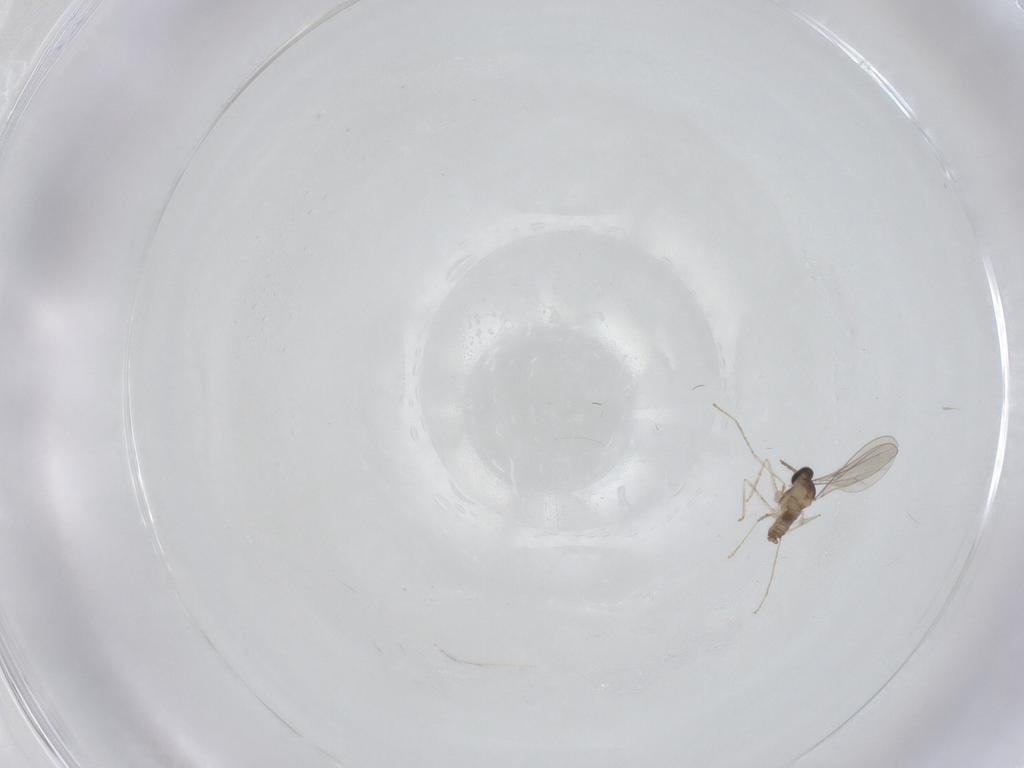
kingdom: Animalia
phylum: Arthropoda
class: Insecta
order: Diptera
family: Cecidomyiidae
